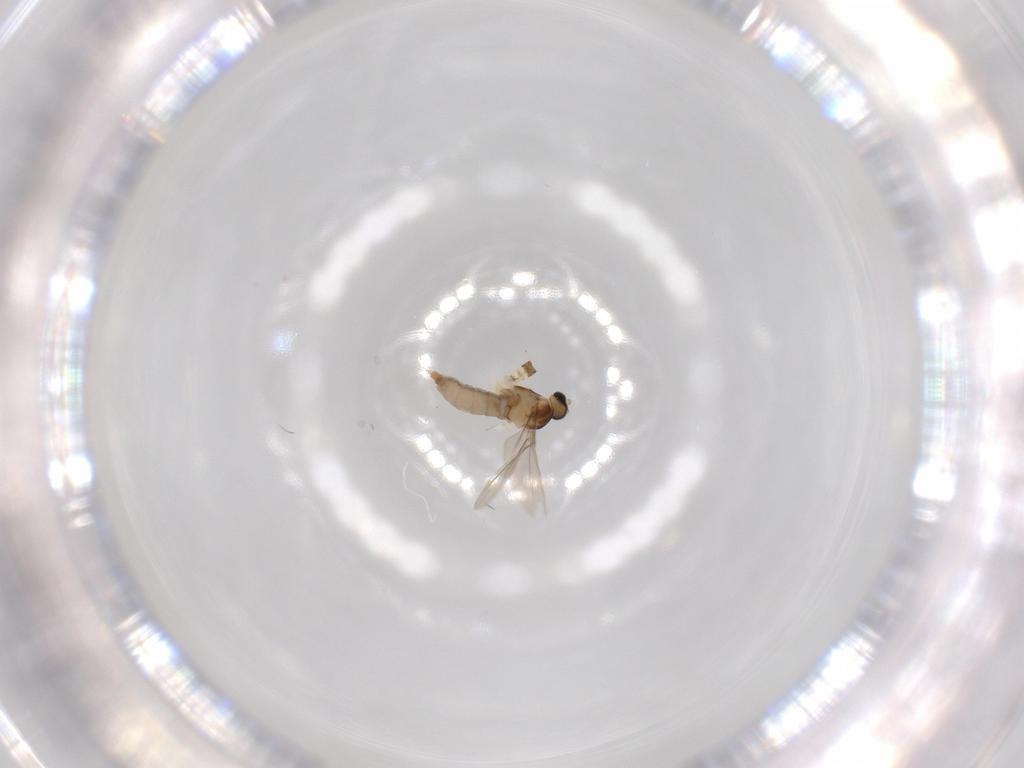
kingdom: Animalia
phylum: Arthropoda
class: Insecta
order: Blattodea
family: Ectobiidae
